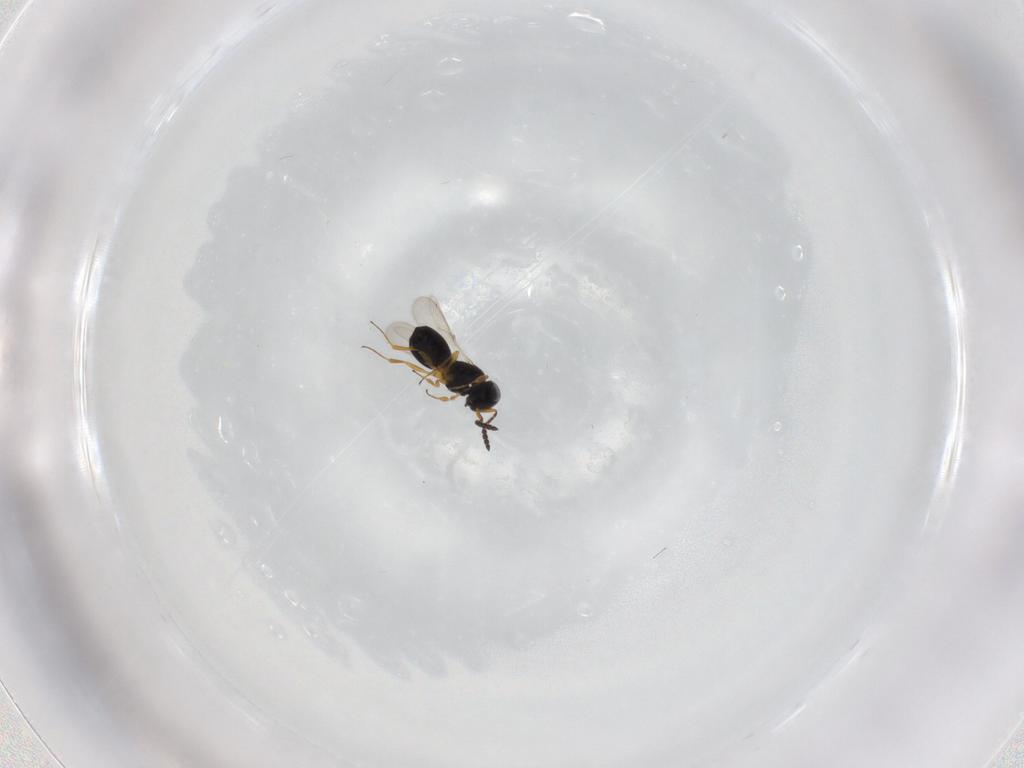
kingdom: Animalia
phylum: Arthropoda
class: Insecta
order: Hymenoptera
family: Scelionidae
